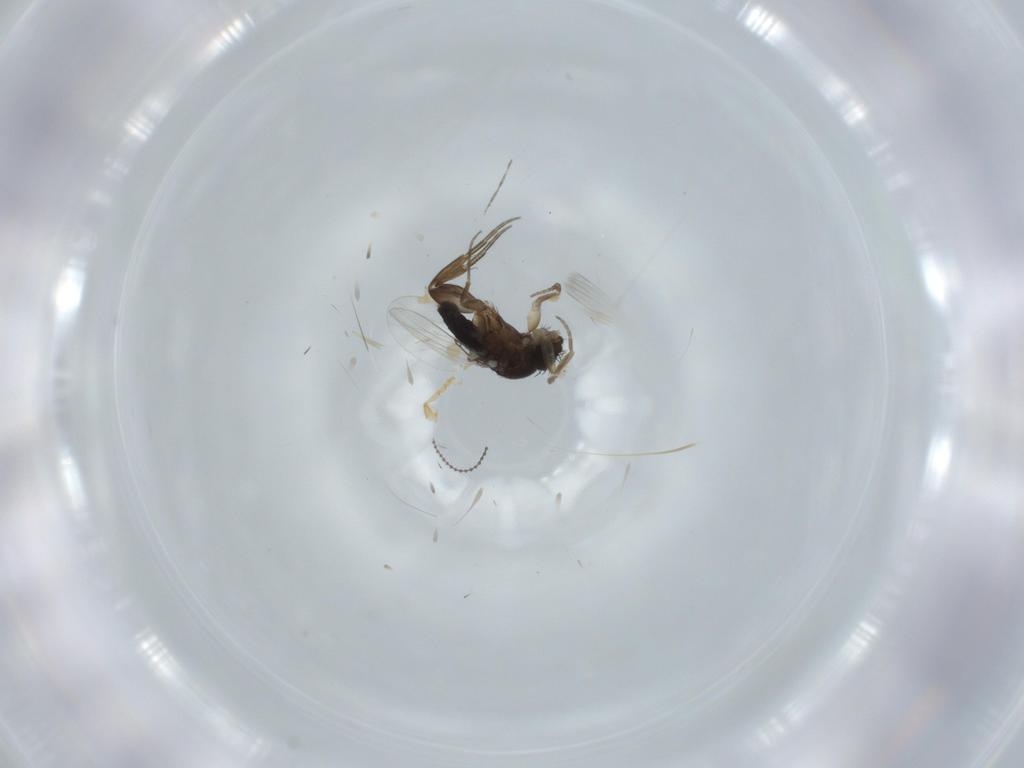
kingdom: Animalia
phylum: Arthropoda
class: Insecta
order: Diptera
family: Phoridae
